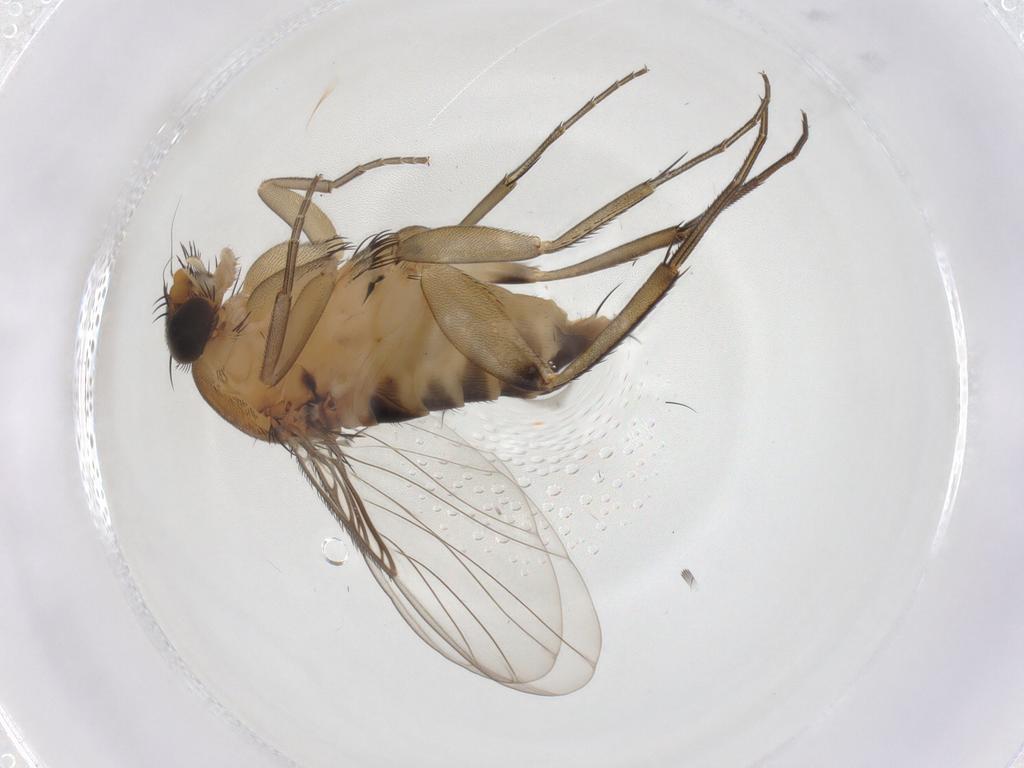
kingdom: Animalia
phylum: Arthropoda
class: Insecta
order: Diptera
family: Phoridae
